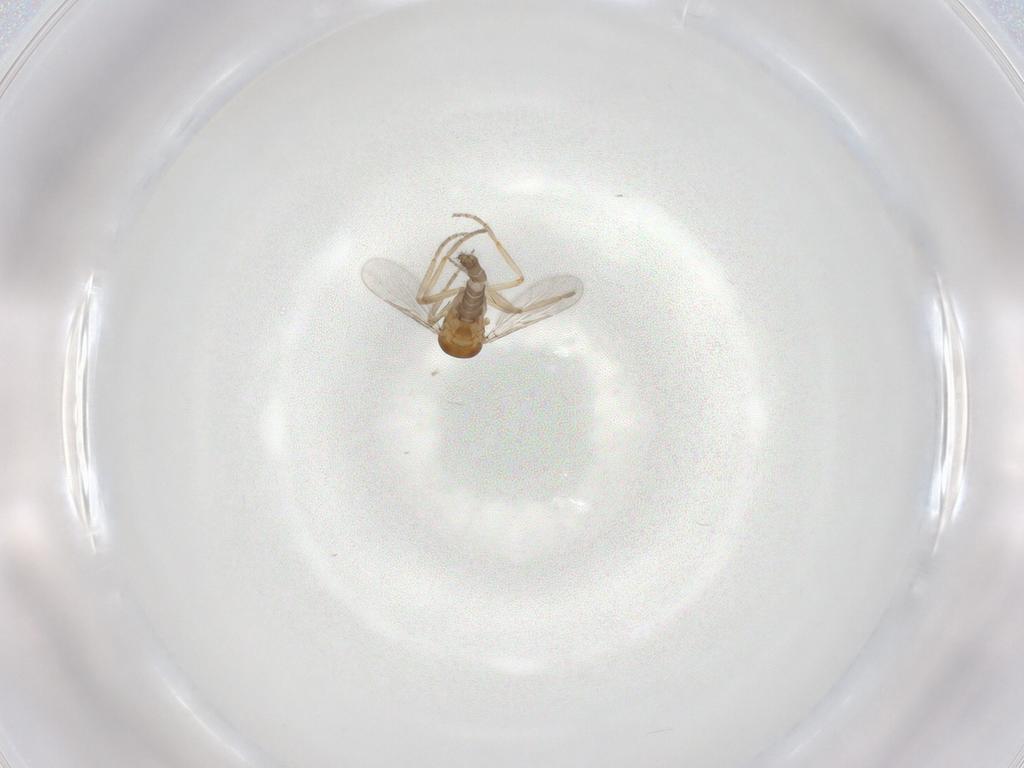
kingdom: Animalia
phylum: Arthropoda
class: Insecta
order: Diptera
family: Ceratopogonidae
